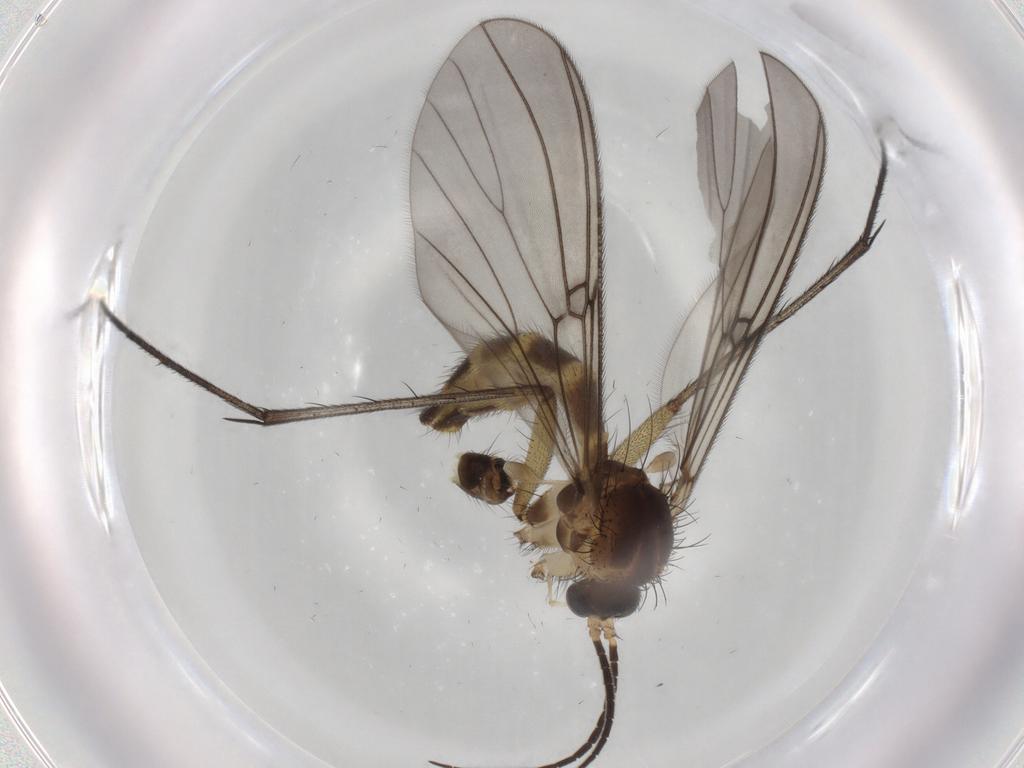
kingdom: Animalia
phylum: Arthropoda
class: Insecta
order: Diptera
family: Mycetophilidae
